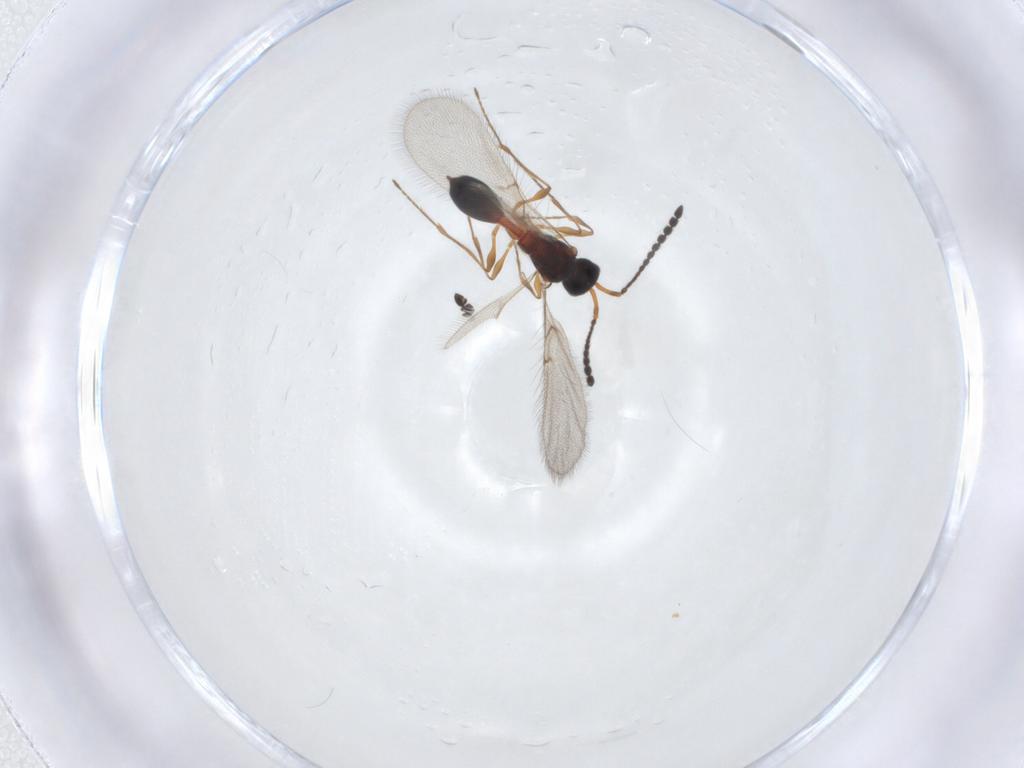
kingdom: Animalia
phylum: Arthropoda
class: Insecta
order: Hymenoptera
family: Diapriidae
